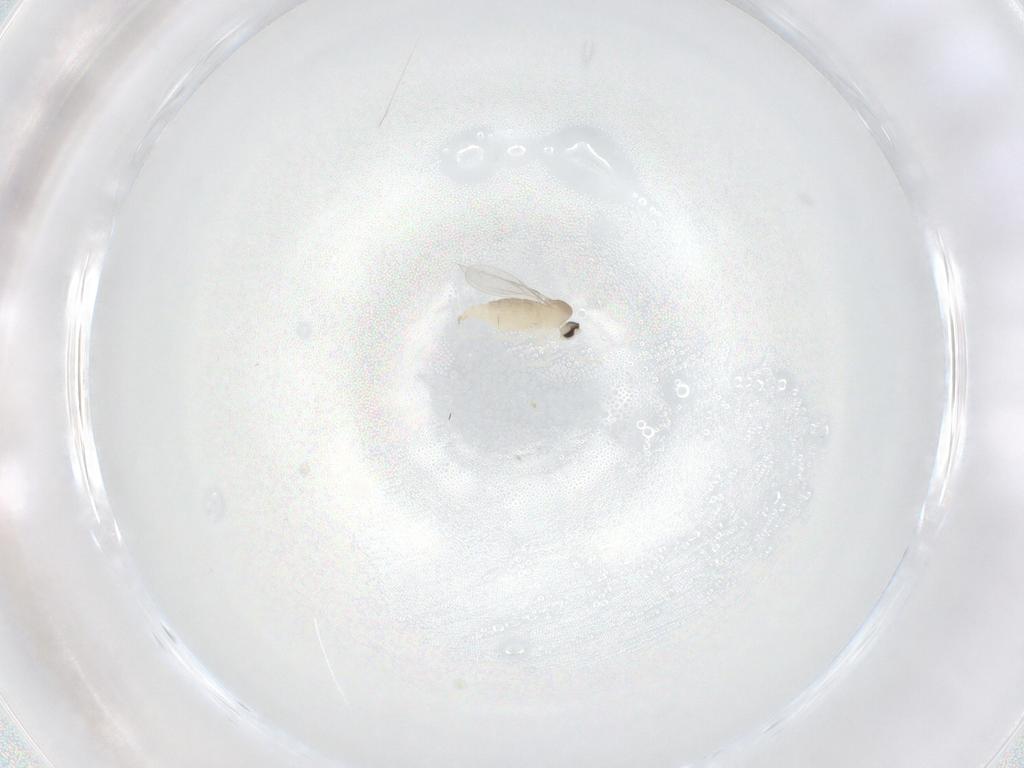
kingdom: Animalia
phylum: Arthropoda
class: Insecta
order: Diptera
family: Cecidomyiidae
